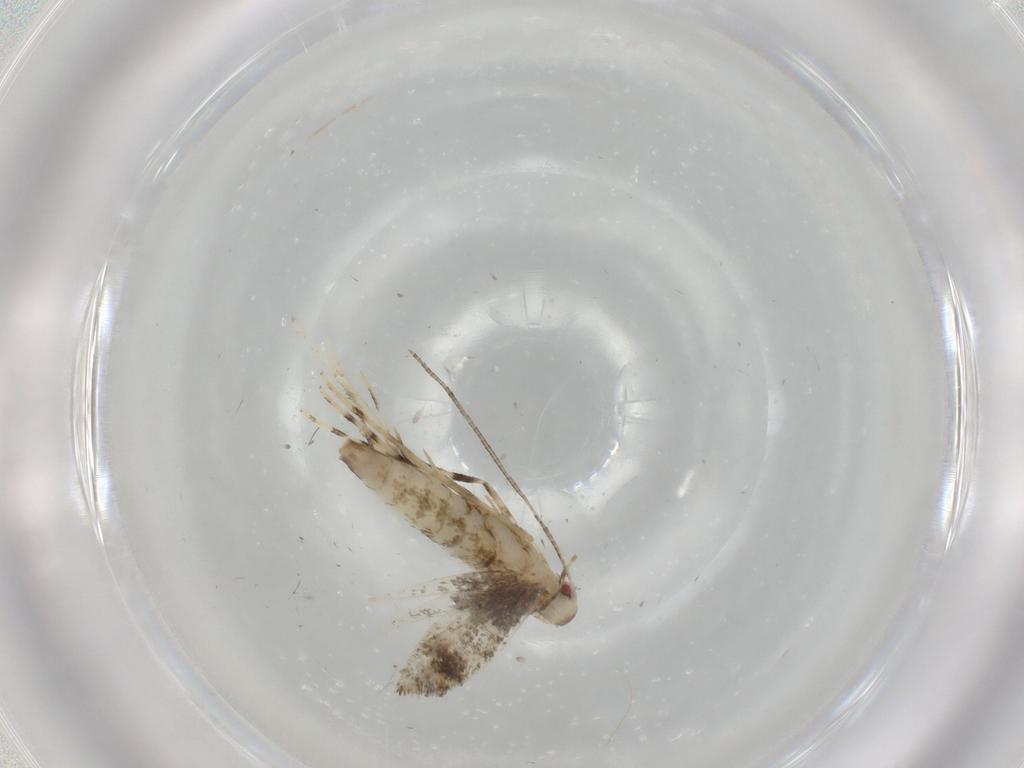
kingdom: Animalia
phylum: Arthropoda
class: Insecta
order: Lepidoptera
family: Gracillariidae
